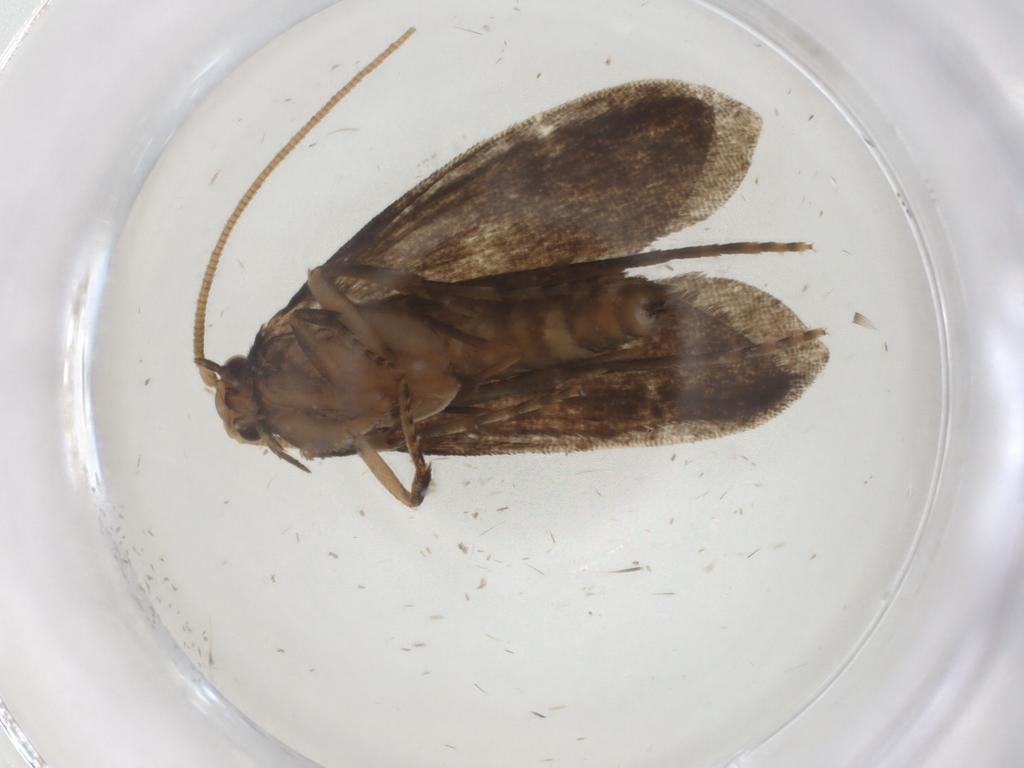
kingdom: Animalia
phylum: Arthropoda
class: Insecta
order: Lepidoptera
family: Tineidae
